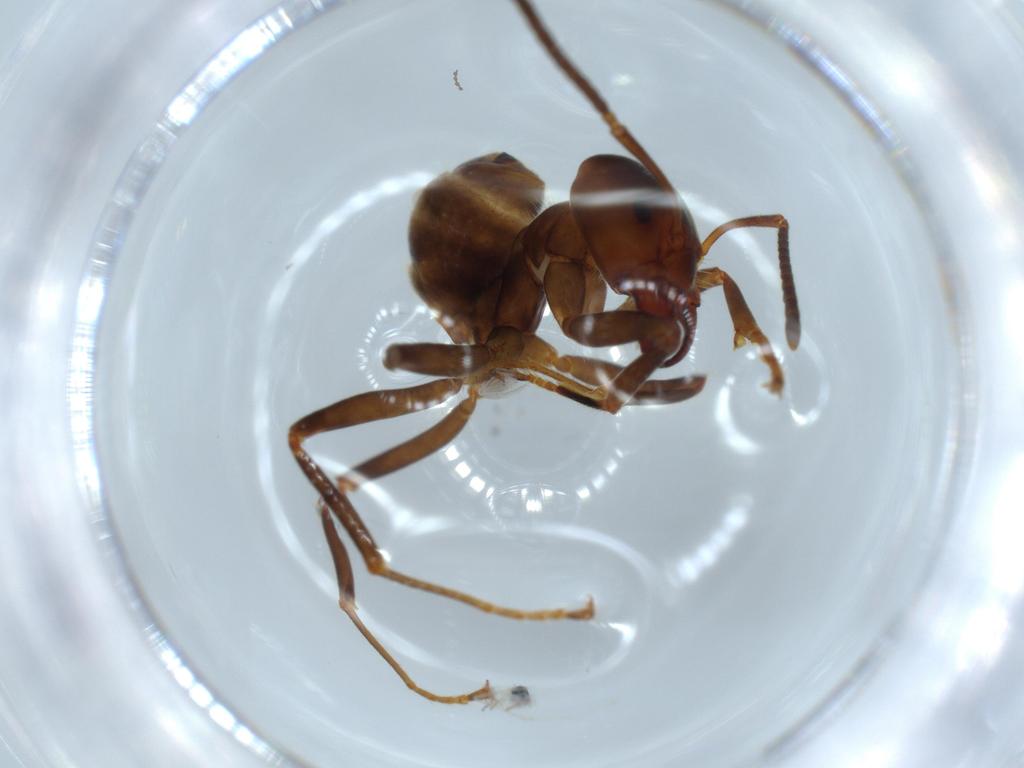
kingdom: Animalia
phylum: Arthropoda
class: Insecta
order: Hymenoptera
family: Formicidae
